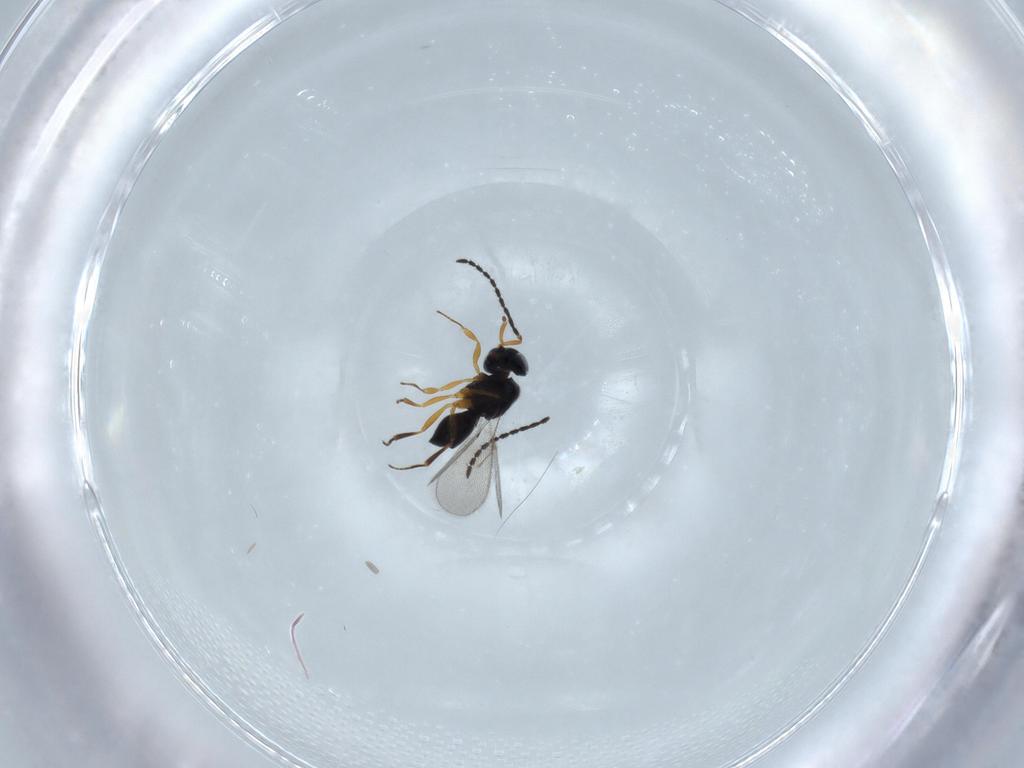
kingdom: Animalia
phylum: Arthropoda
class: Insecta
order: Hymenoptera
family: Scelionidae
